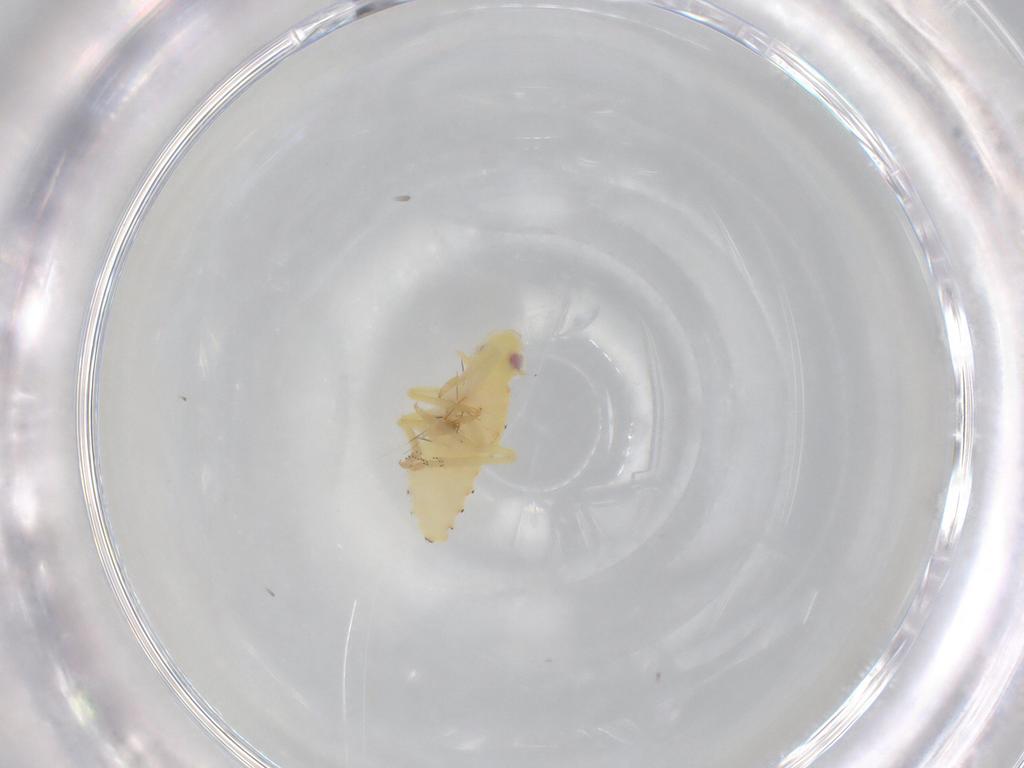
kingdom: Animalia
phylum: Arthropoda
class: Insecta
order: Hemiptera
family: Tropiduchidae
